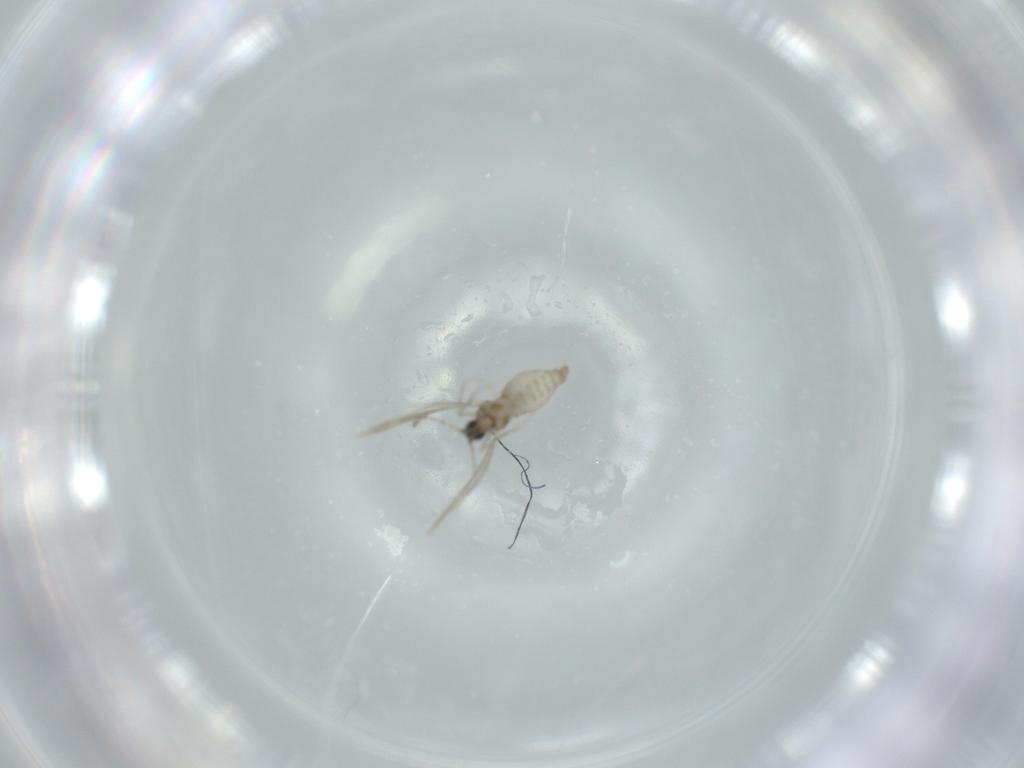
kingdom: Animalia
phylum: Arthropoda
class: Insecta
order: Diptera
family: Cecidomyiidae
